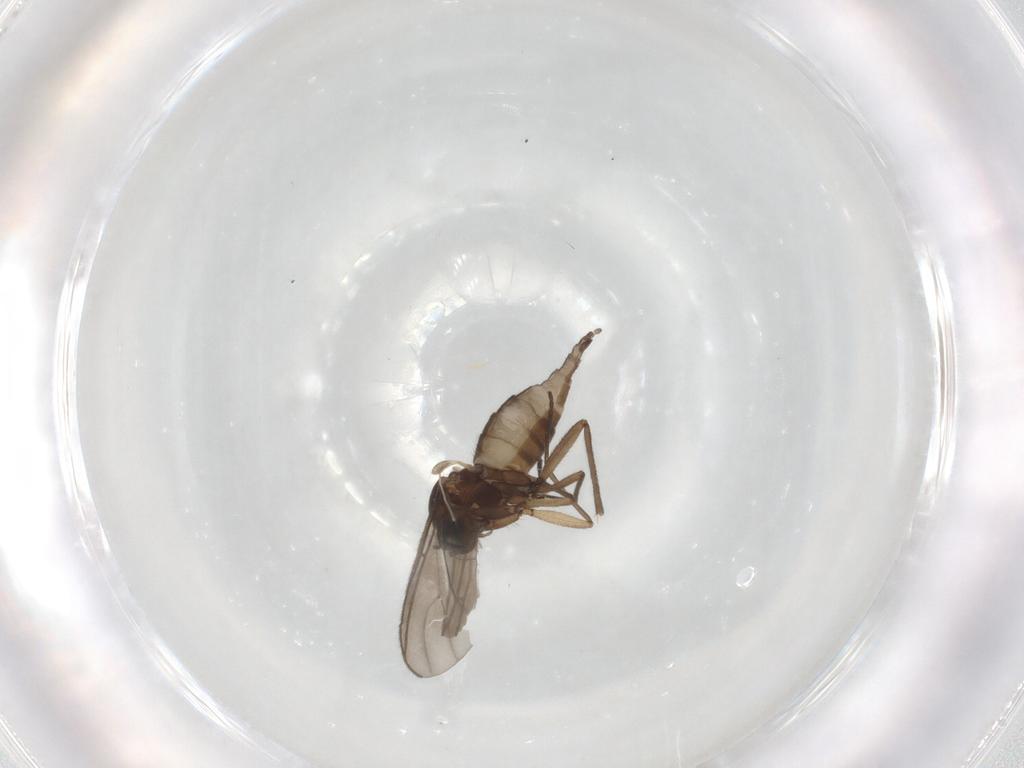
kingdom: Animalia
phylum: Arthropoda
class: Insecta
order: Diptera
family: Sciaridae
